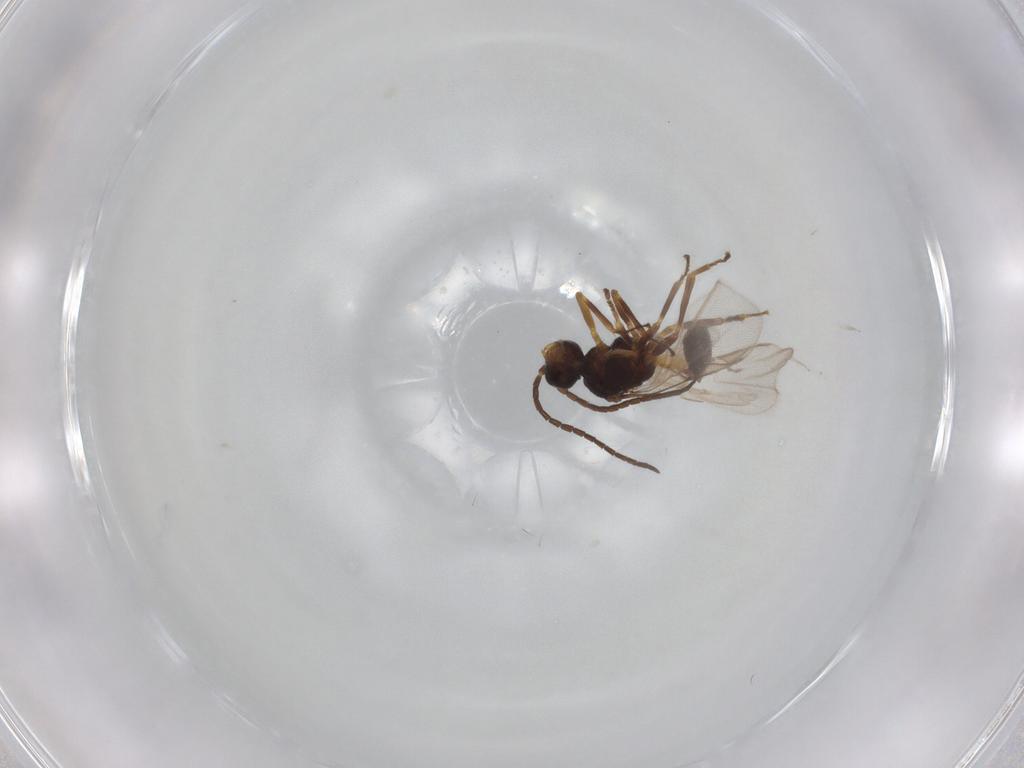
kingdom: Animalia
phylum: Arthropoda
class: Insecta
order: Hymenoptera
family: Braconidae
